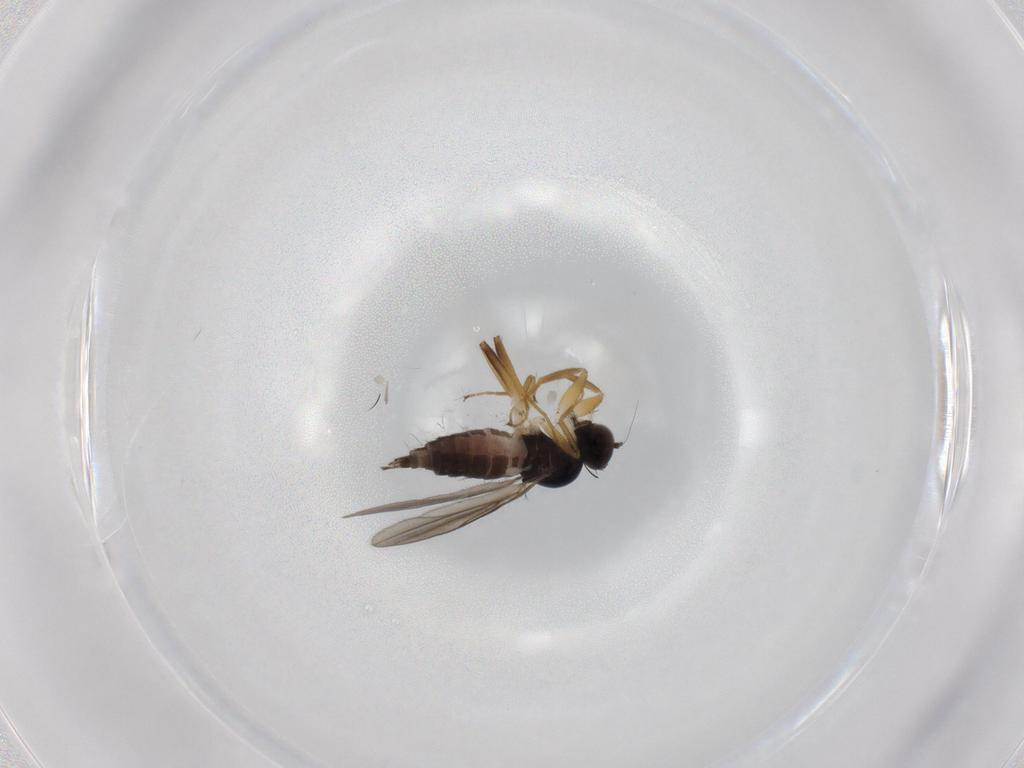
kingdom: Animalia
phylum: Arthropoda
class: Insecta
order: Diptera
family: Hybotidae
